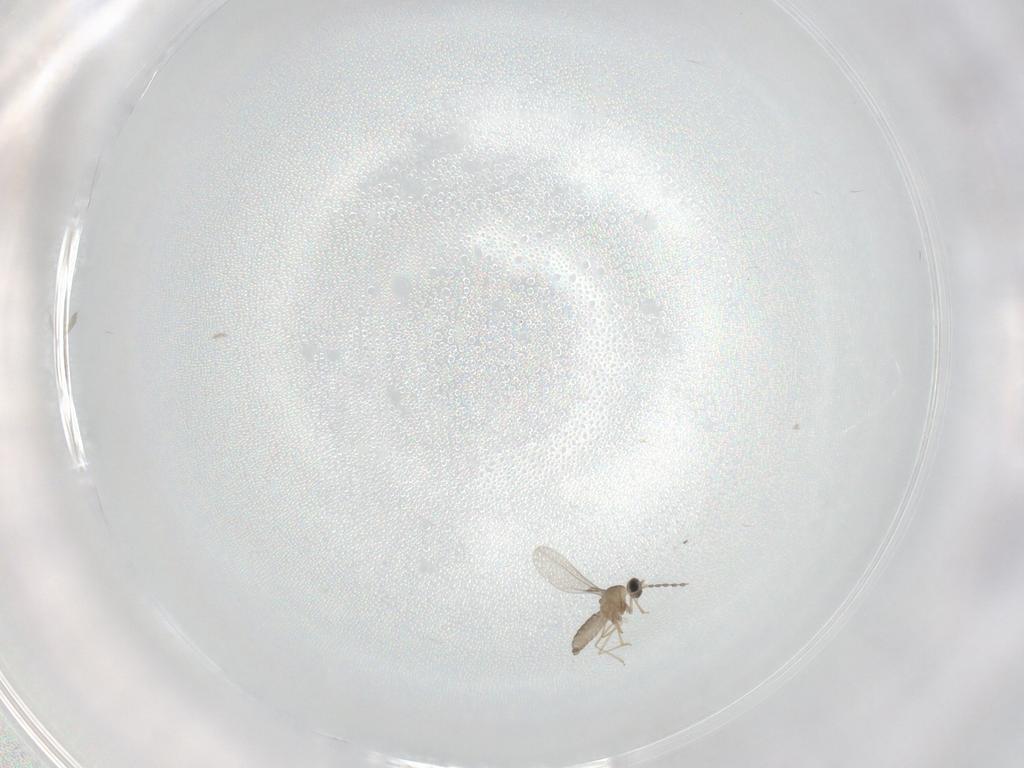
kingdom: Animalia
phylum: Arthropoda
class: Insecta
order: Diptera
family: Cecidomyiidae
